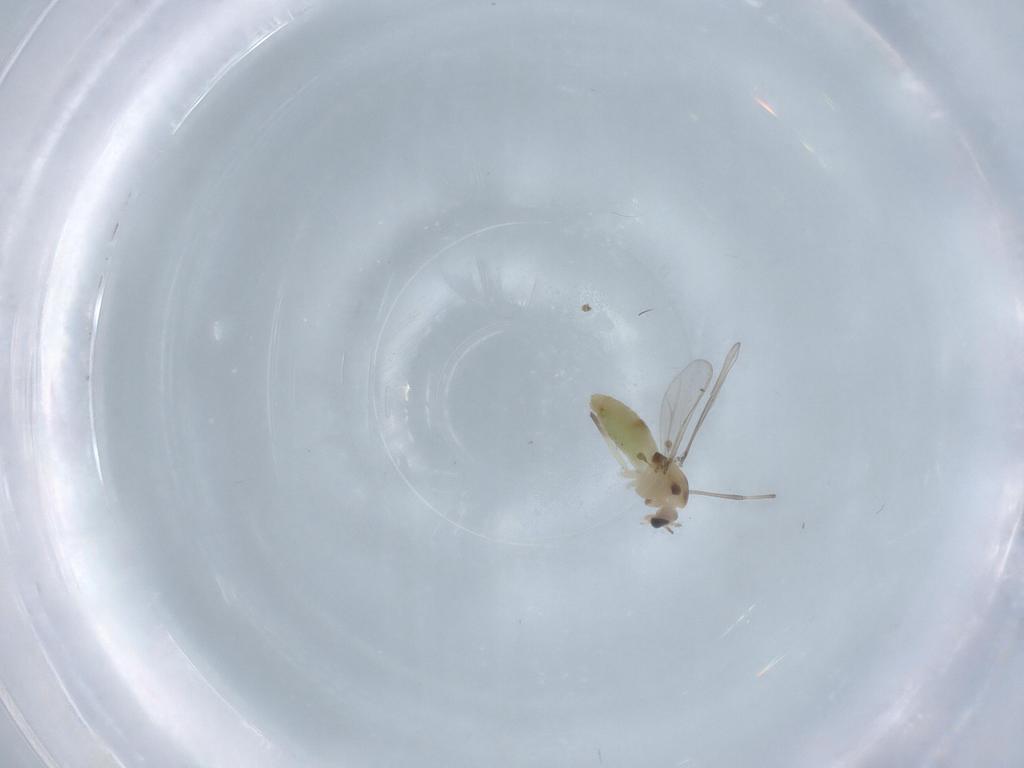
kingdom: Animalia
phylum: Arthropoda
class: Insecta
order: Diptera
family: Chironomidae
